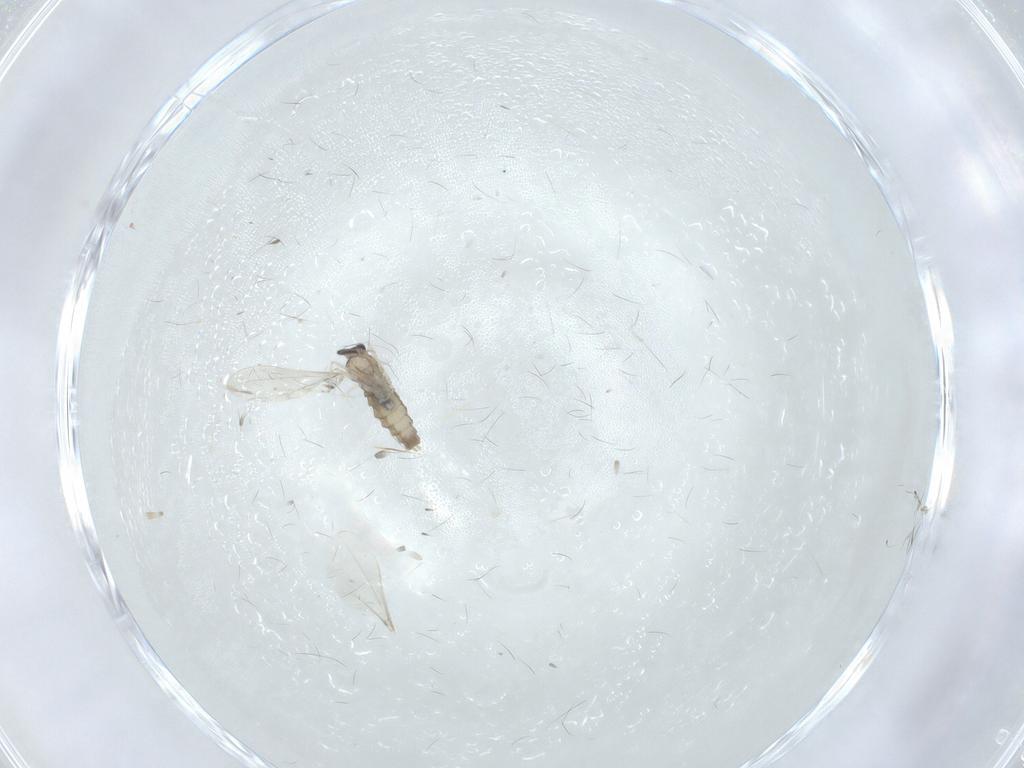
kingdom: Animalia
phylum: Arthropoda
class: Insecta
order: Diptera
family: Cecidomyiidae
